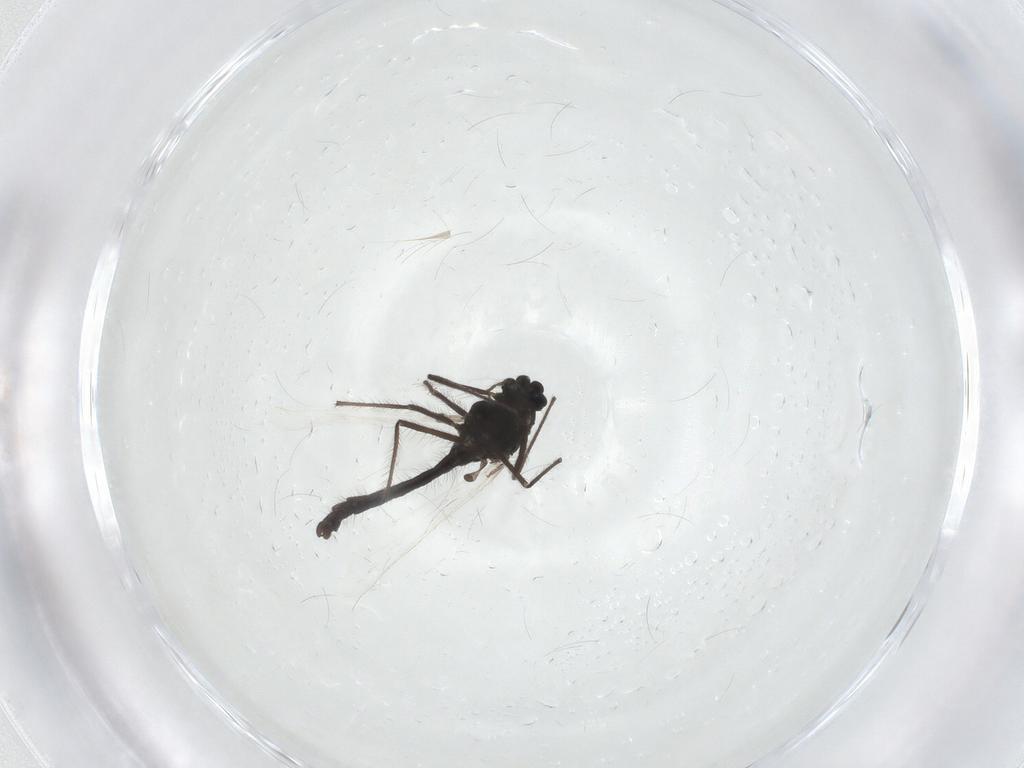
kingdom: Animalia
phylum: Arthropoda
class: Insecta
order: Diptera
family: Chironomidae
